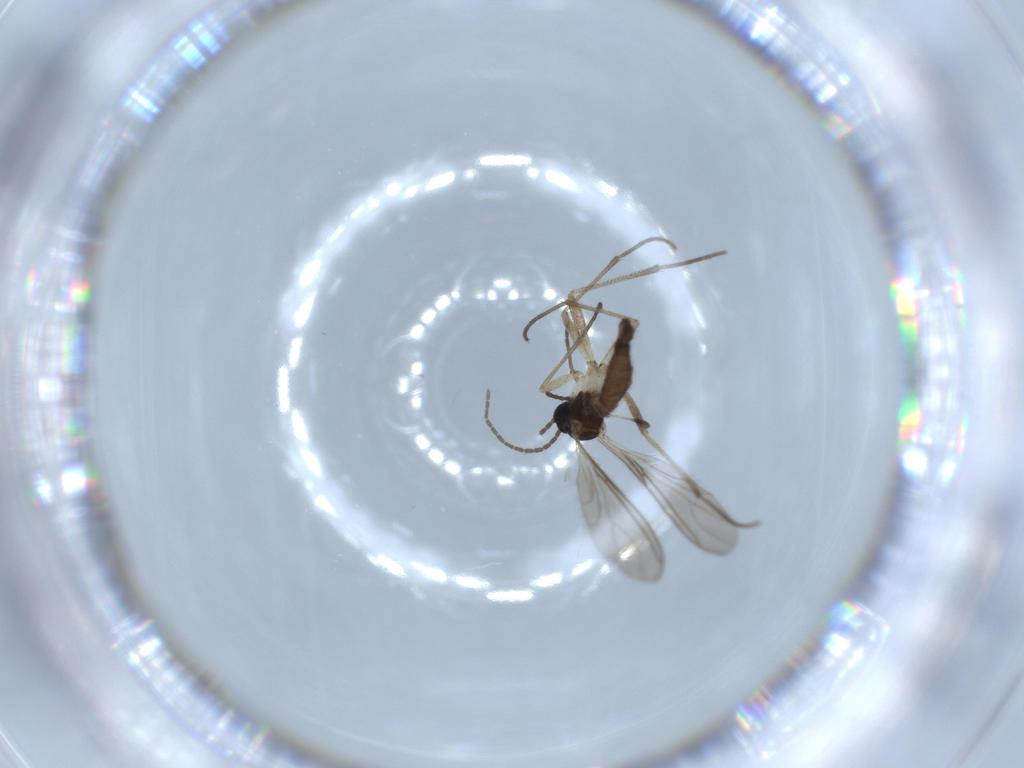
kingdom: Animalia
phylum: Arthropoda
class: Insecta
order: Diptera
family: Sciaridae
